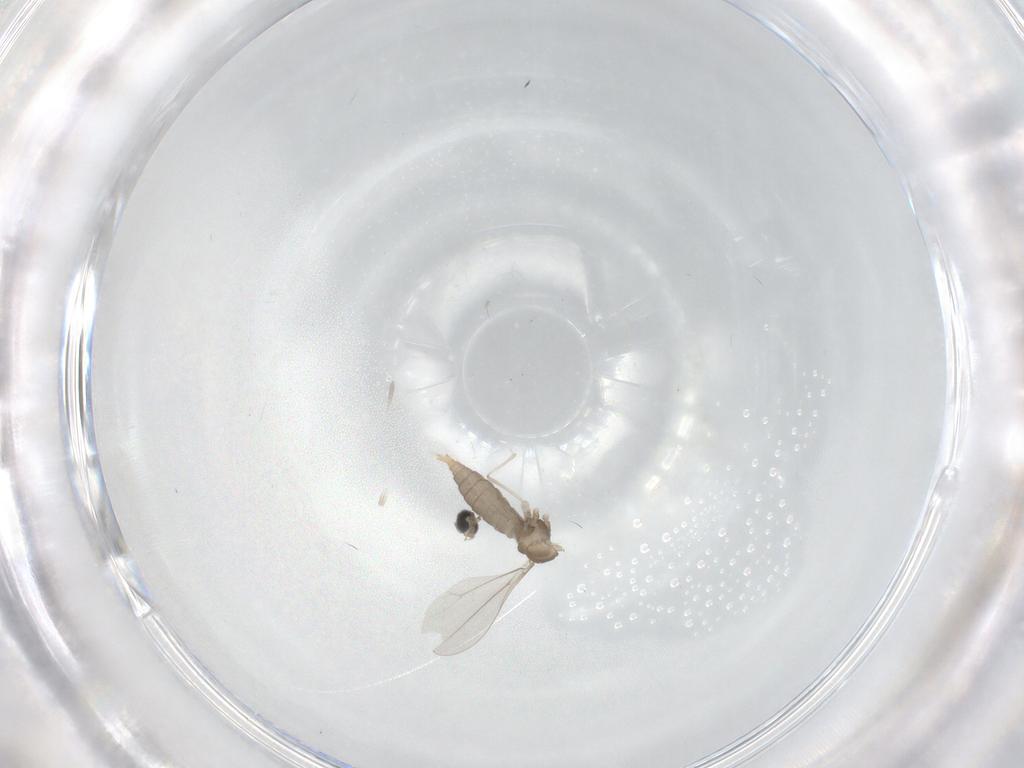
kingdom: Animalia
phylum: Arthropoda
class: Insecta
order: Diptera
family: Cecidomyiidae
